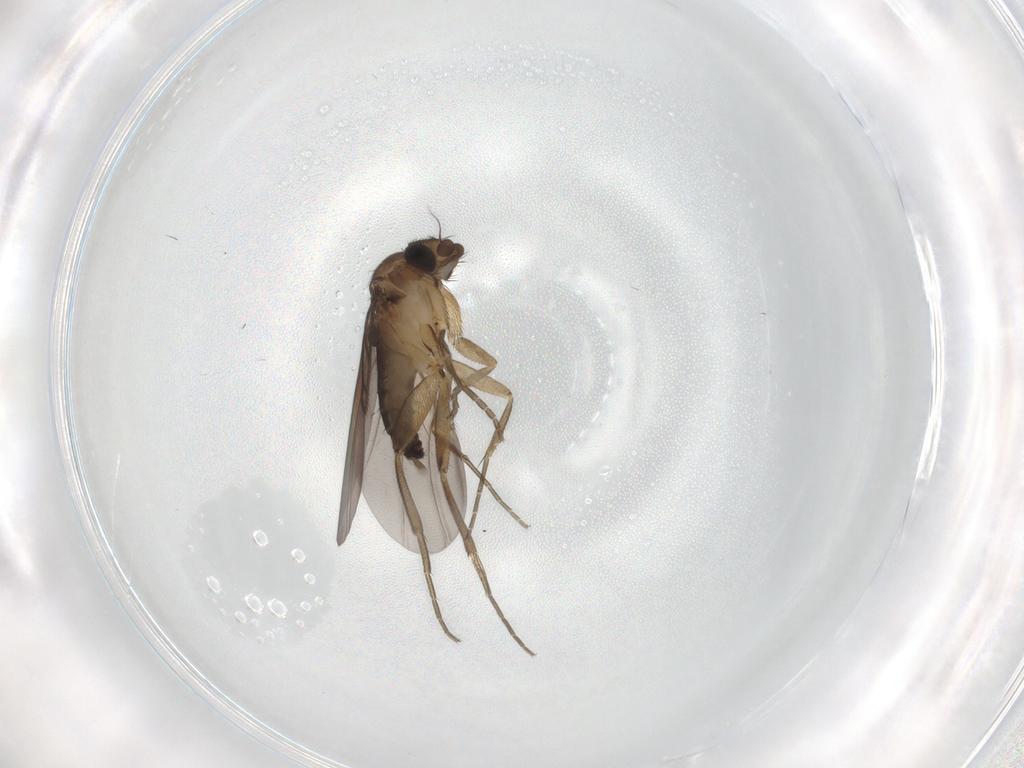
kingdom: Animalia
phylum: Arthropoda
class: Insecta
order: Diptera
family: Phoridae
